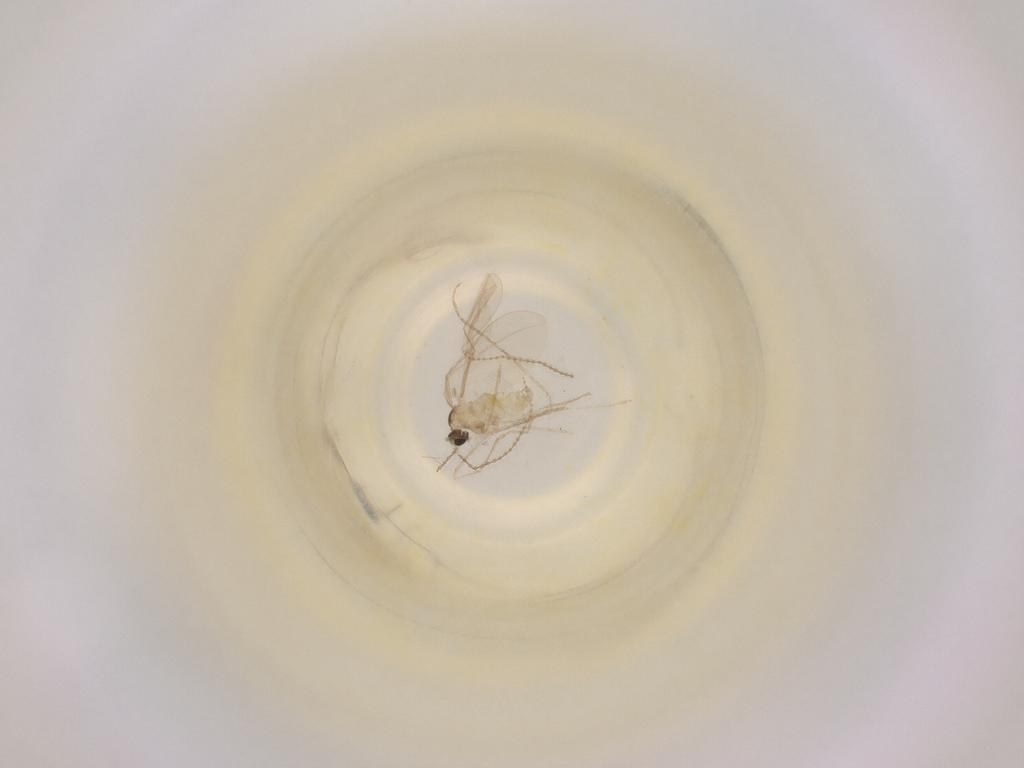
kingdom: Animalia
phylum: Arthropoda
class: Insecta
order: Diptera
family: Cecidomyiidae
